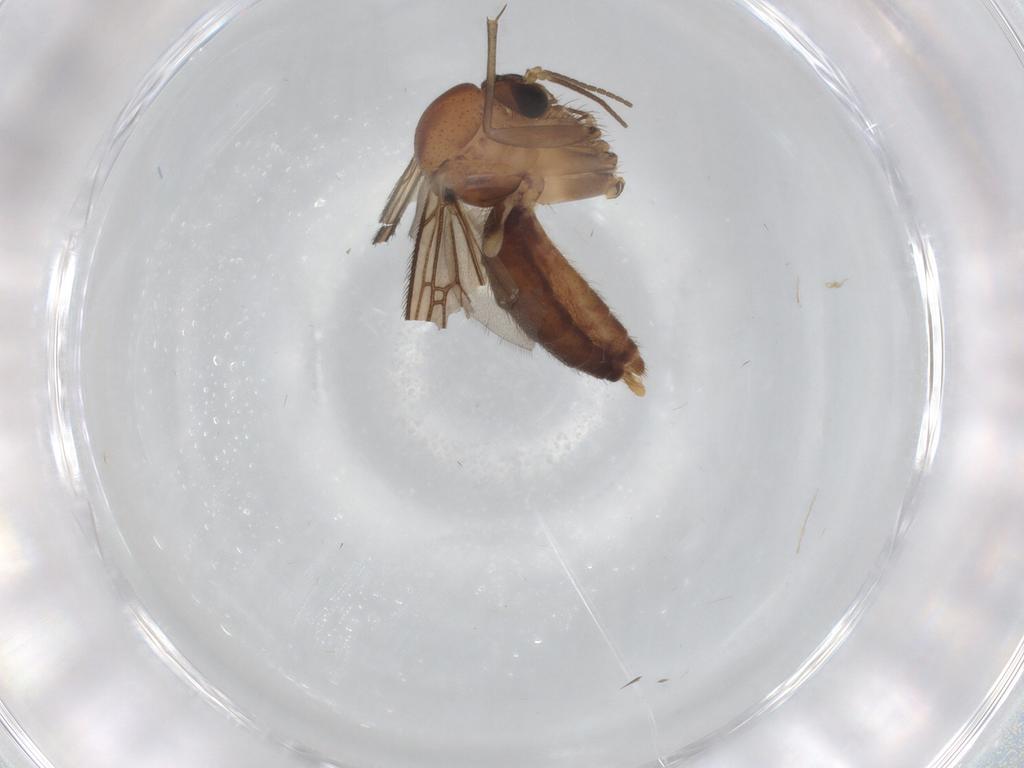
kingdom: Animalia
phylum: Arthropoda
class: Insecta
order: Diptera
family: Sciaridae
